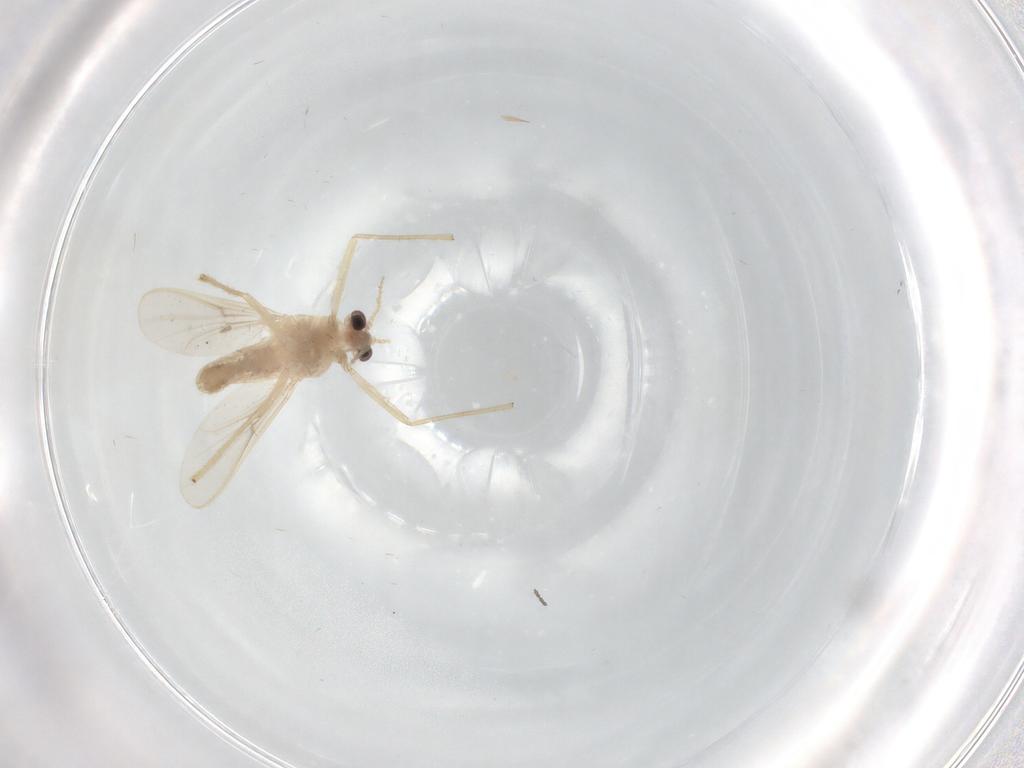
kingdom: Animalia
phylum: Arthropoda
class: Insecta
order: Diptera
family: Chironomidae
